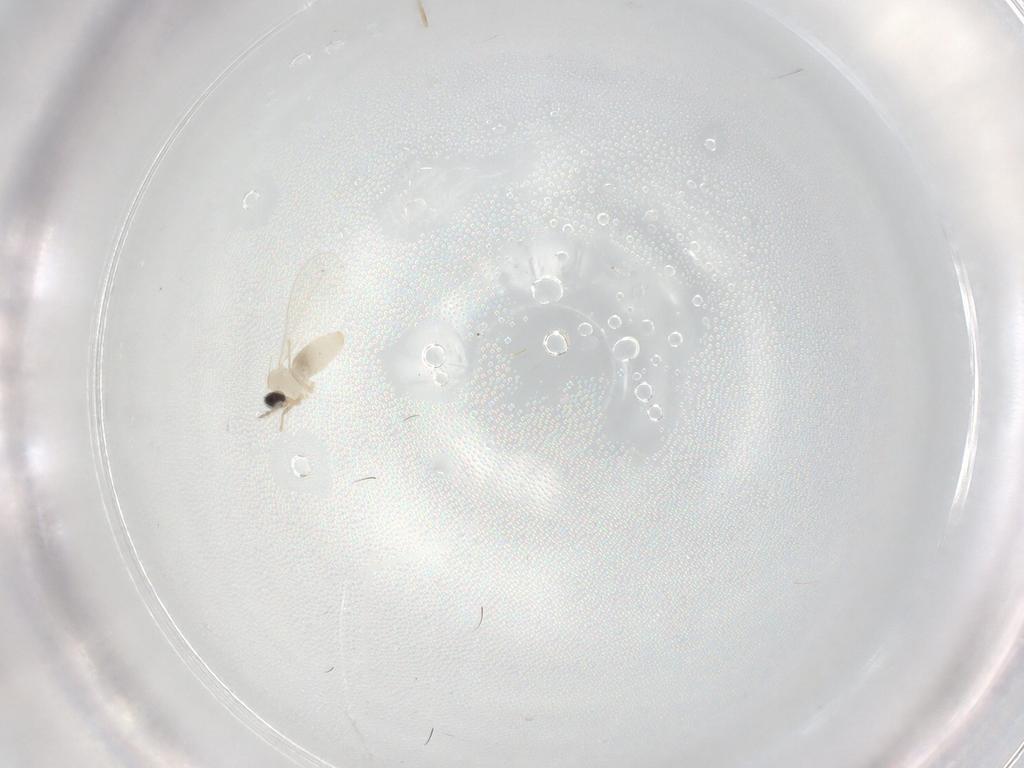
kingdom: Animalia
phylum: Arthropoda
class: Insecta
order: Diptera
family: Cecidomyiidae
